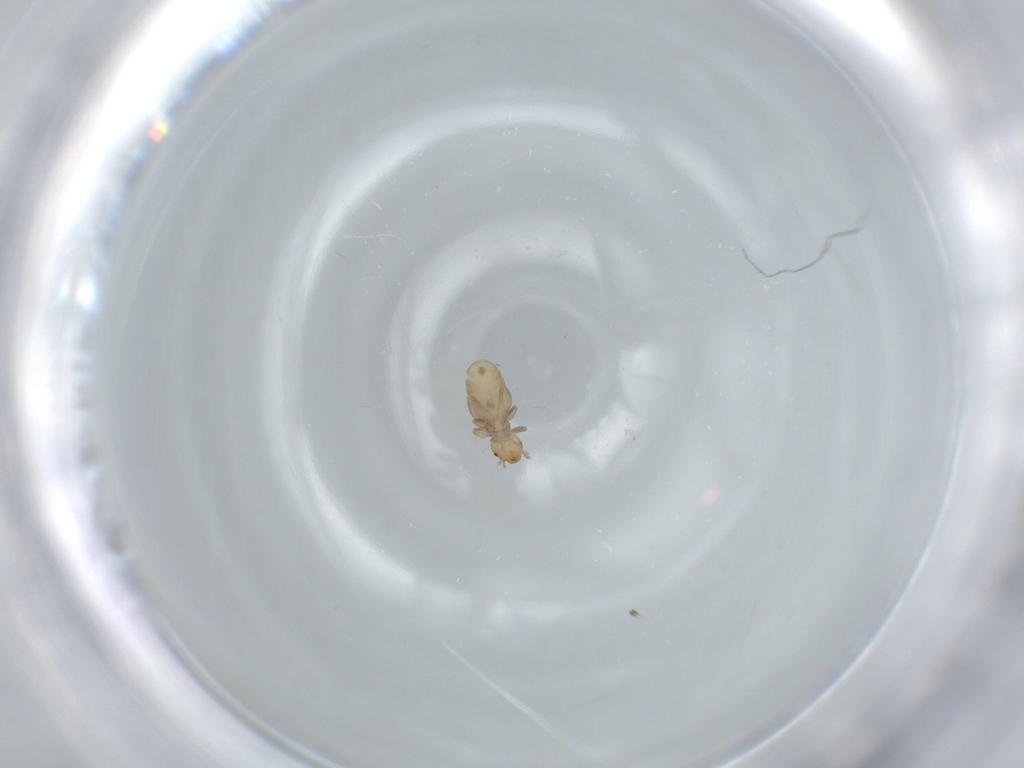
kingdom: Animalia
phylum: Arthropoda
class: Insecta
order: Psocodea
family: Liposcelididae
